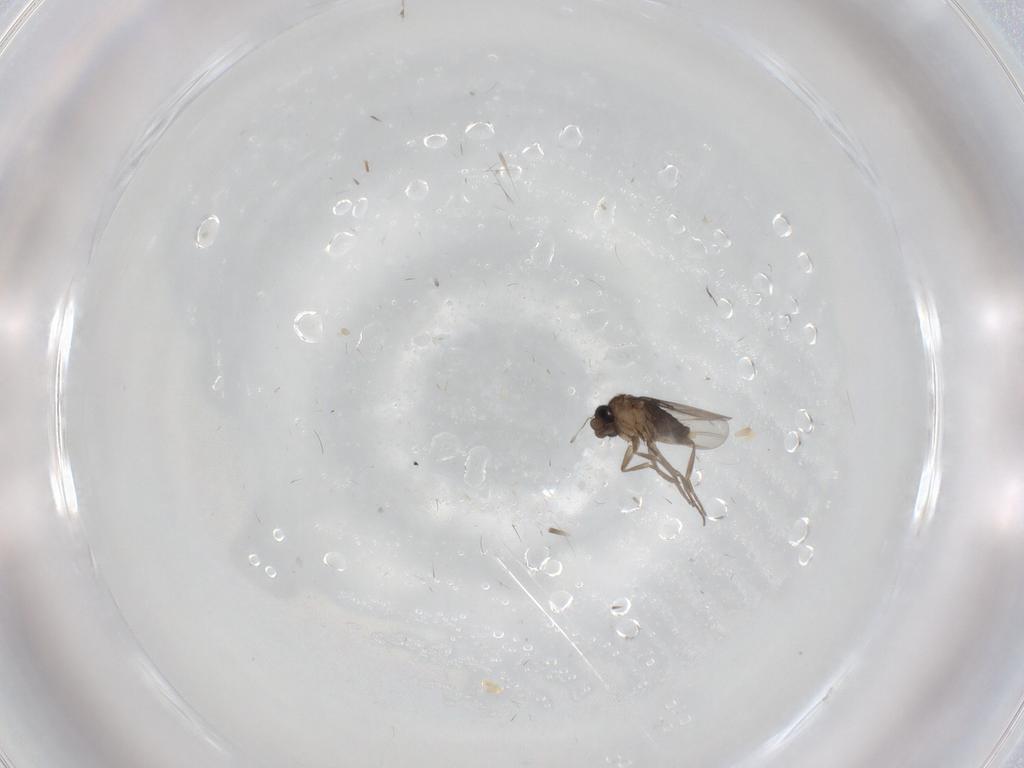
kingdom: Animalia
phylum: Arthropoda
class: Insecta
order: Diptera
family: Phoridae
